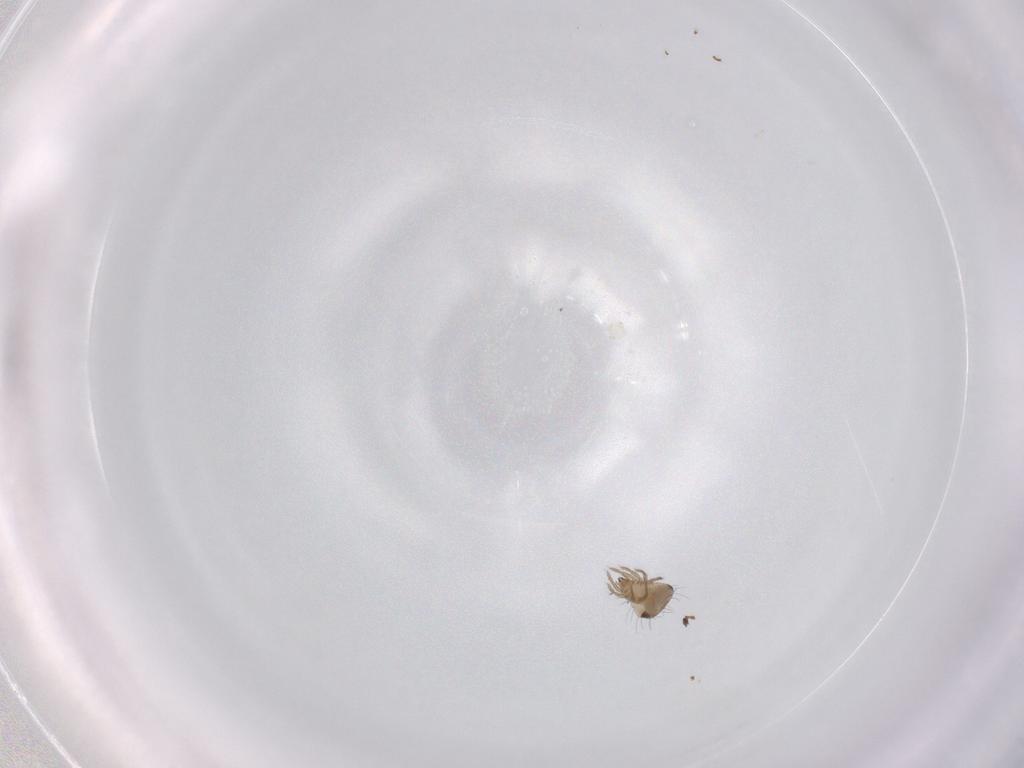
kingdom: Animalia
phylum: Arthropoda
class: Arachnida
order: Sarcoptiformes
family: Humerobatidae
